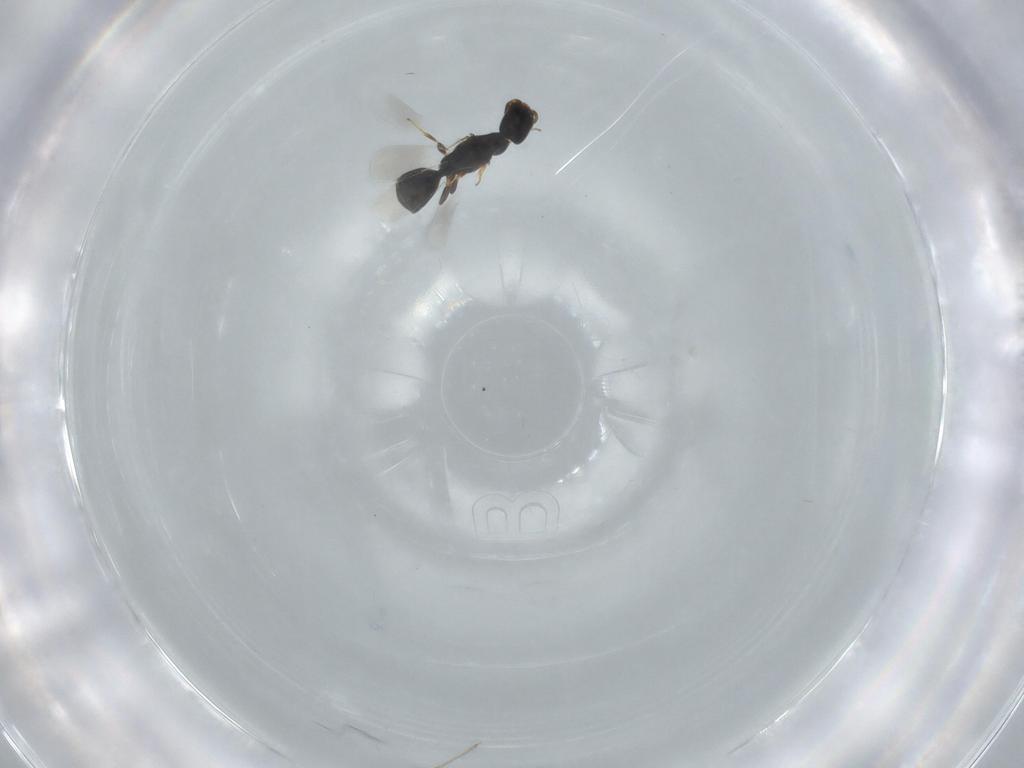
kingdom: Animalia
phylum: Arthropoda
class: Insecta
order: Hymenoptera
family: Bethylidae
